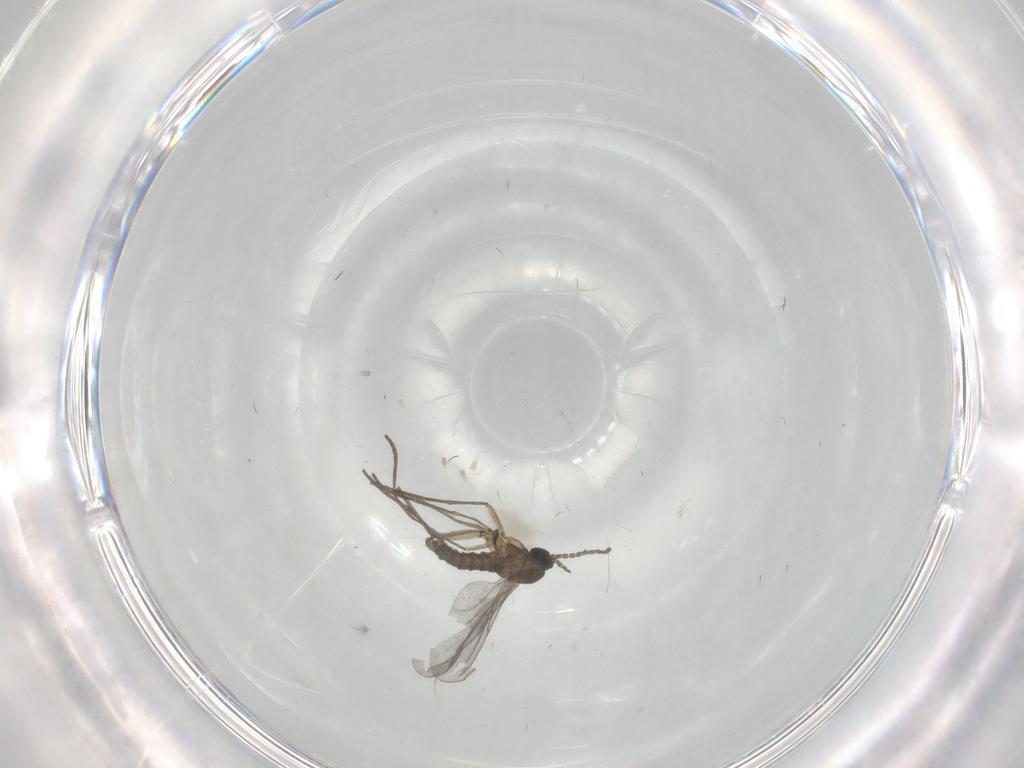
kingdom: Animalia
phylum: Arthropoda
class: Insecta
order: Diptera
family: Sciaridae
